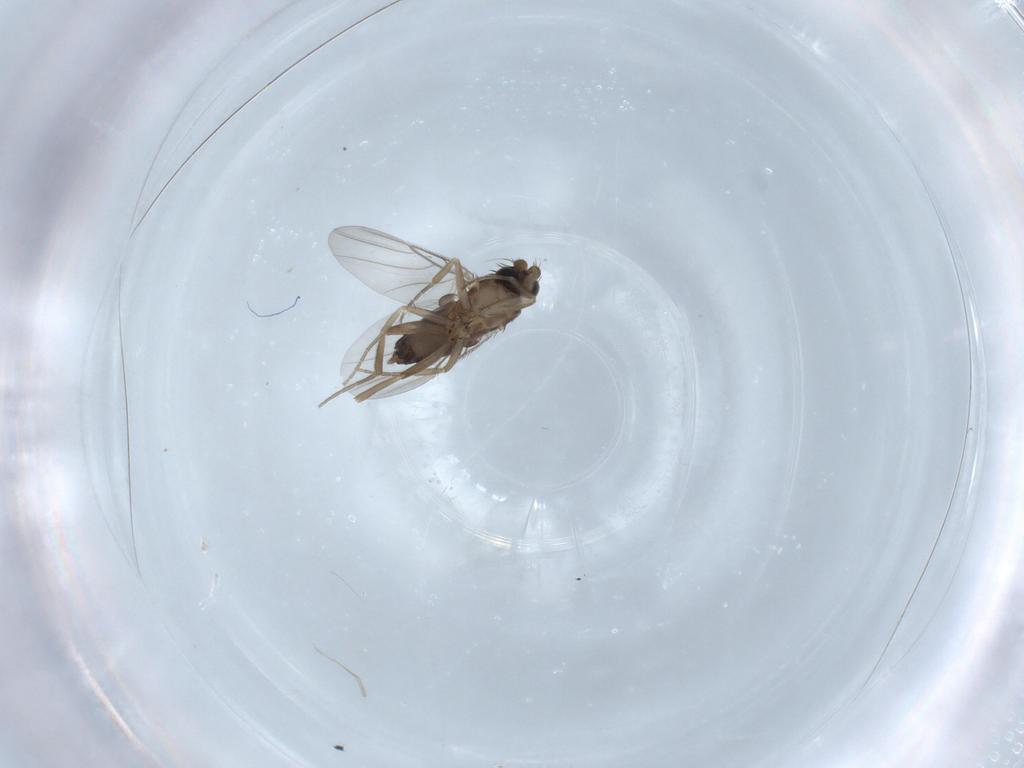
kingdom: Animalia
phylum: Arthropoda
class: Insecta
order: Diptera
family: Phoridae
